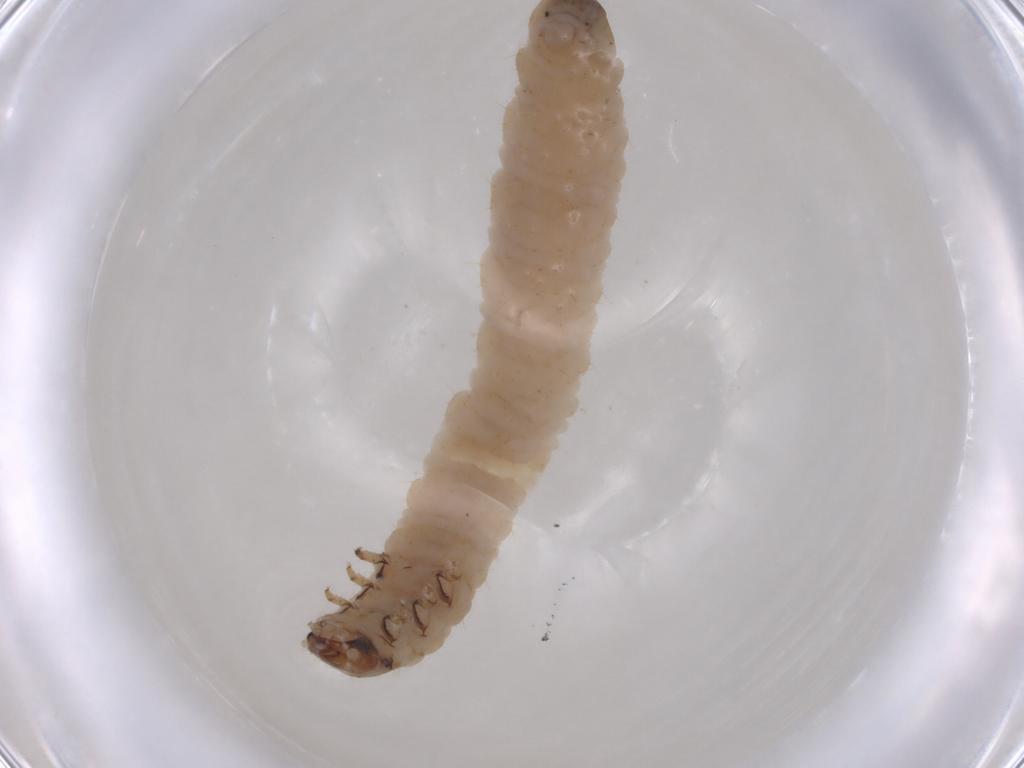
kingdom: Animalia
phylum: Arthropoda
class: Insecta
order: Coleoptera
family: Chrysomelidae
